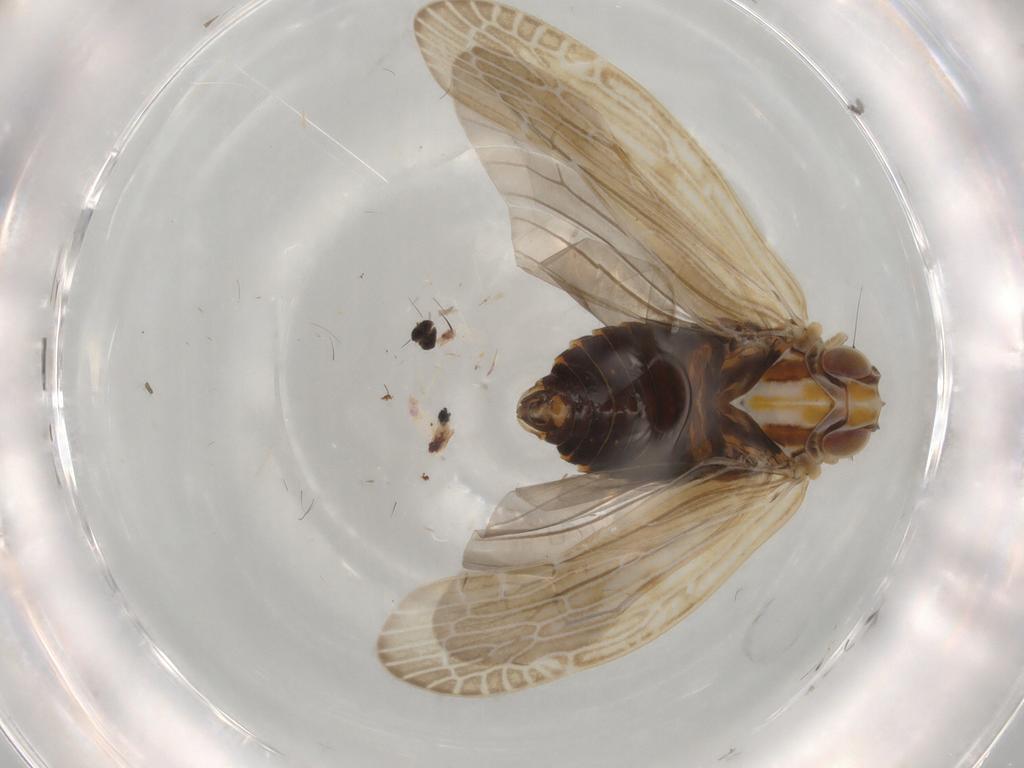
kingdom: Animalia
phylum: Arthropoda
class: Insecta
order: Hemiptera
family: Achilidae
